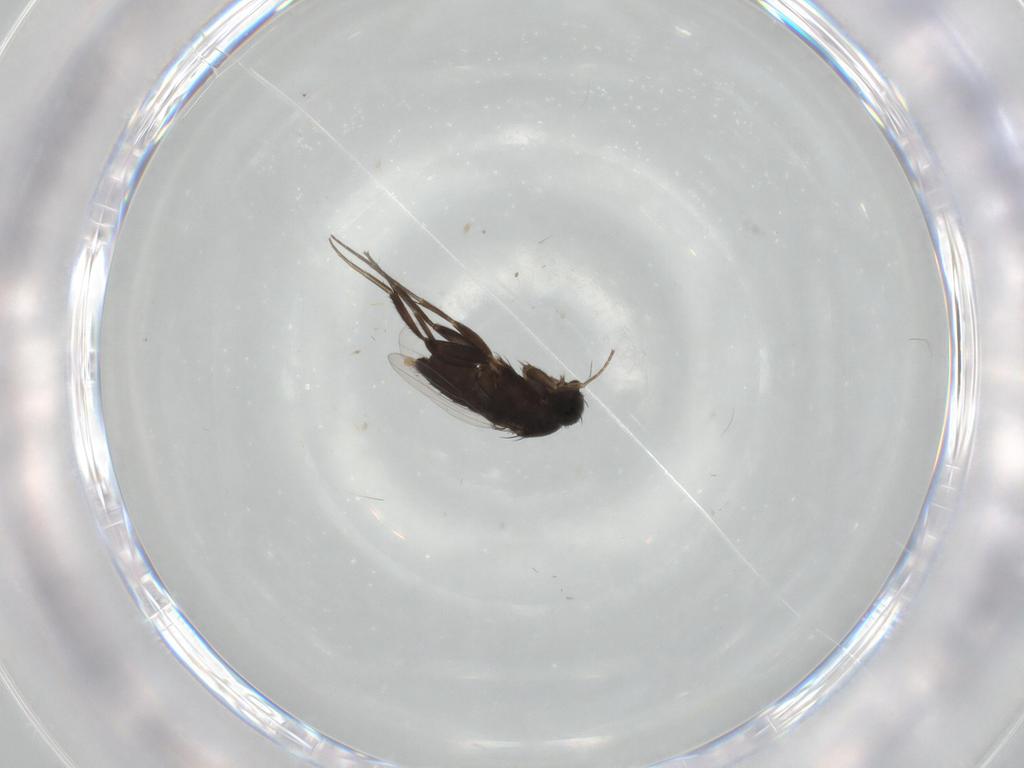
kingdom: Animalia
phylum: Arthropoda
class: Insecta
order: Diptera
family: Phoridae
